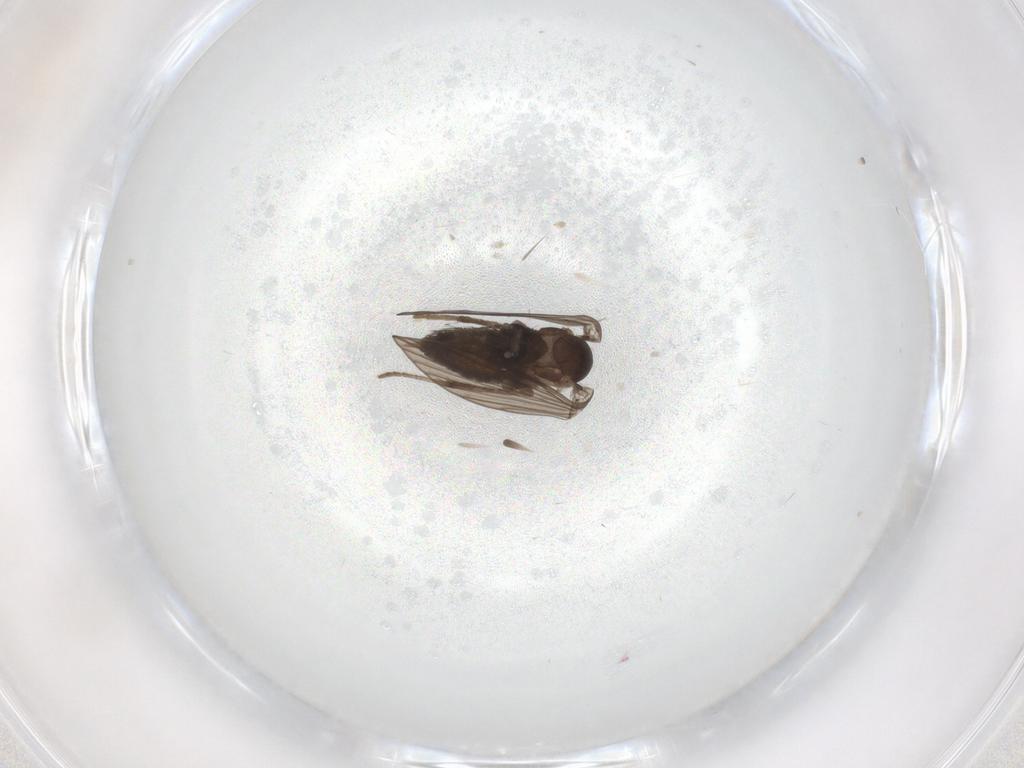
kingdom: Animalia
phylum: Arthropoda
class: Insecta
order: Diptera
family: Psychodidae
